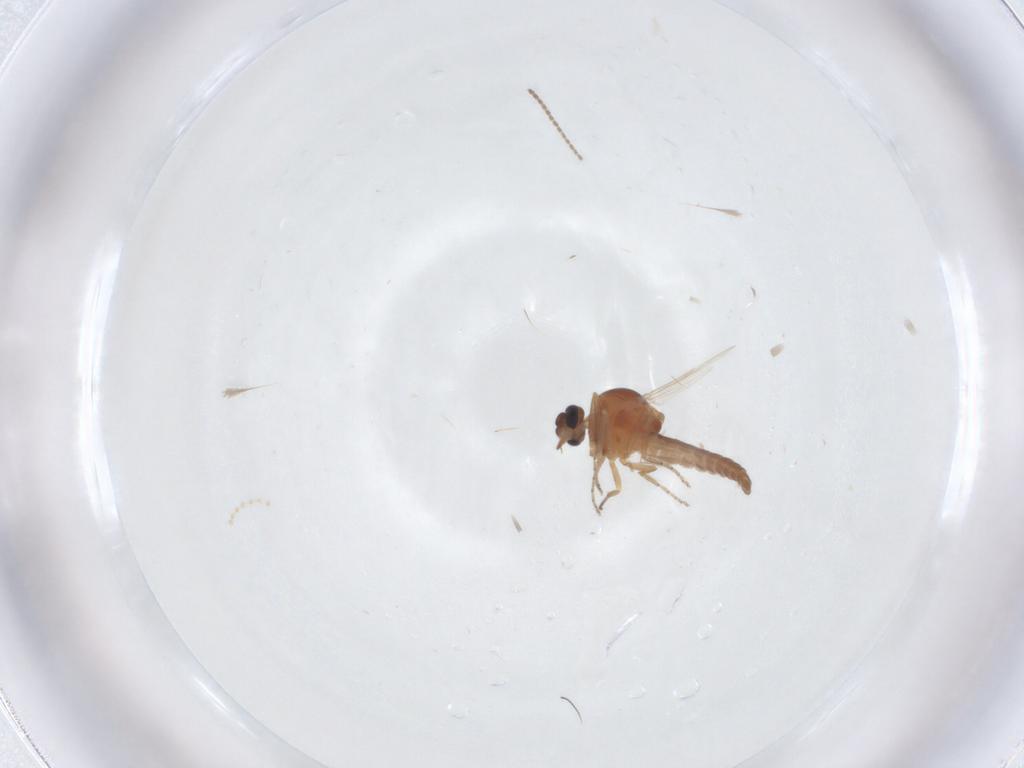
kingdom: Animalia
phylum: Arthropoda
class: Insecta
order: Diptera
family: Ceratopogonidae
